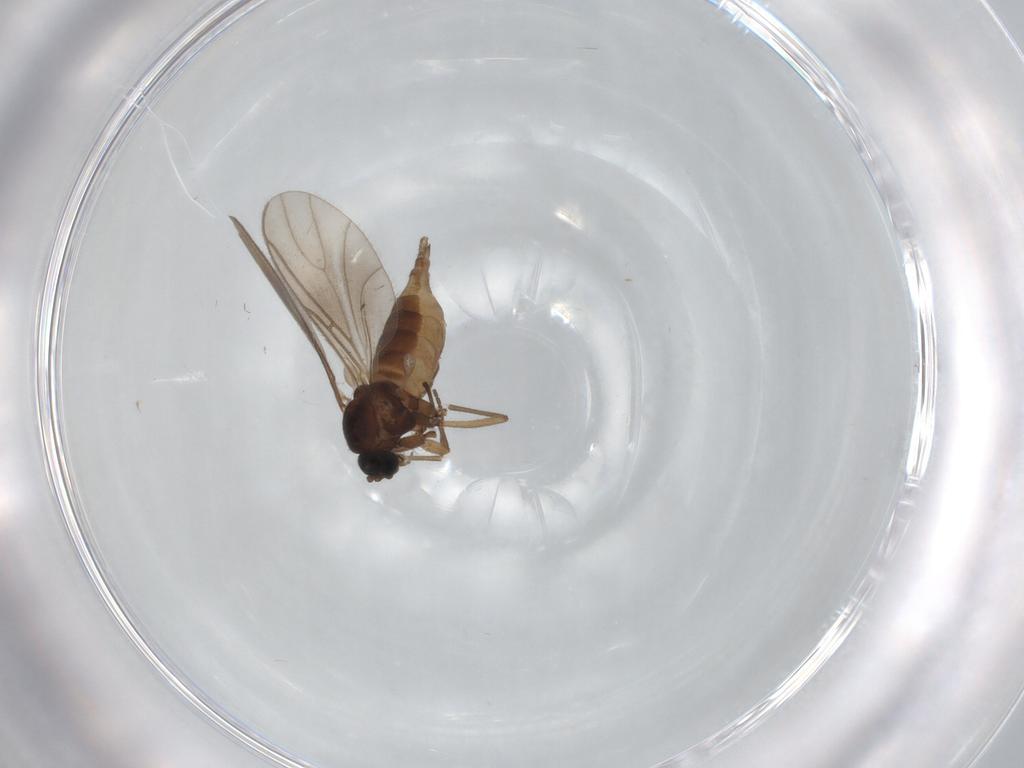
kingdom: Animalia
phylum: Arthropoda
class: Insecta
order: Diptera
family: Sciaridae
